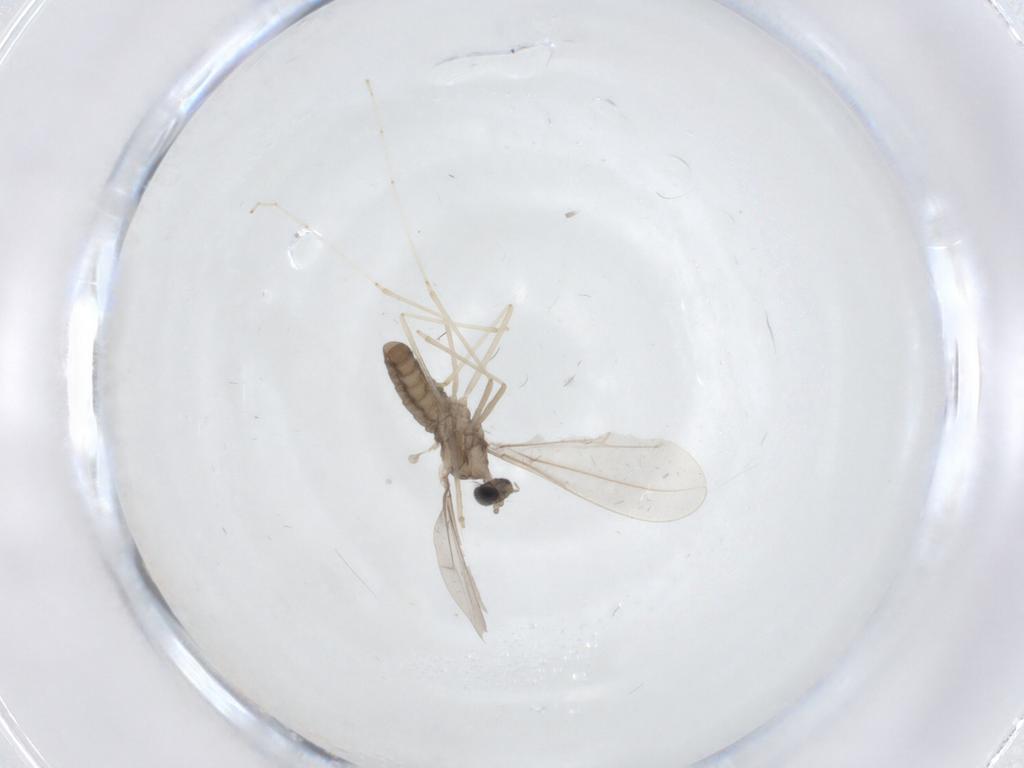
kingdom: Animalia
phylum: Arthropoda
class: Insecta
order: Diptera
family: Cecidomyiidae
